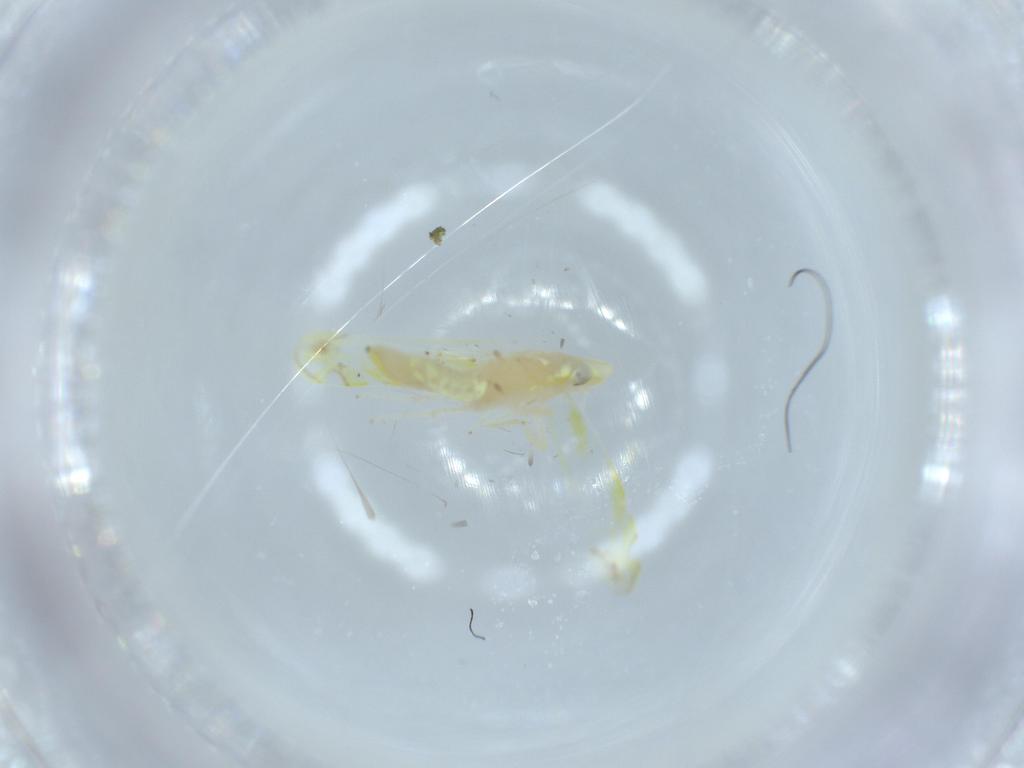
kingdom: Animalia
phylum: Arthropoda
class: Insecta
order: Hemiptera
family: Cicadellidae
